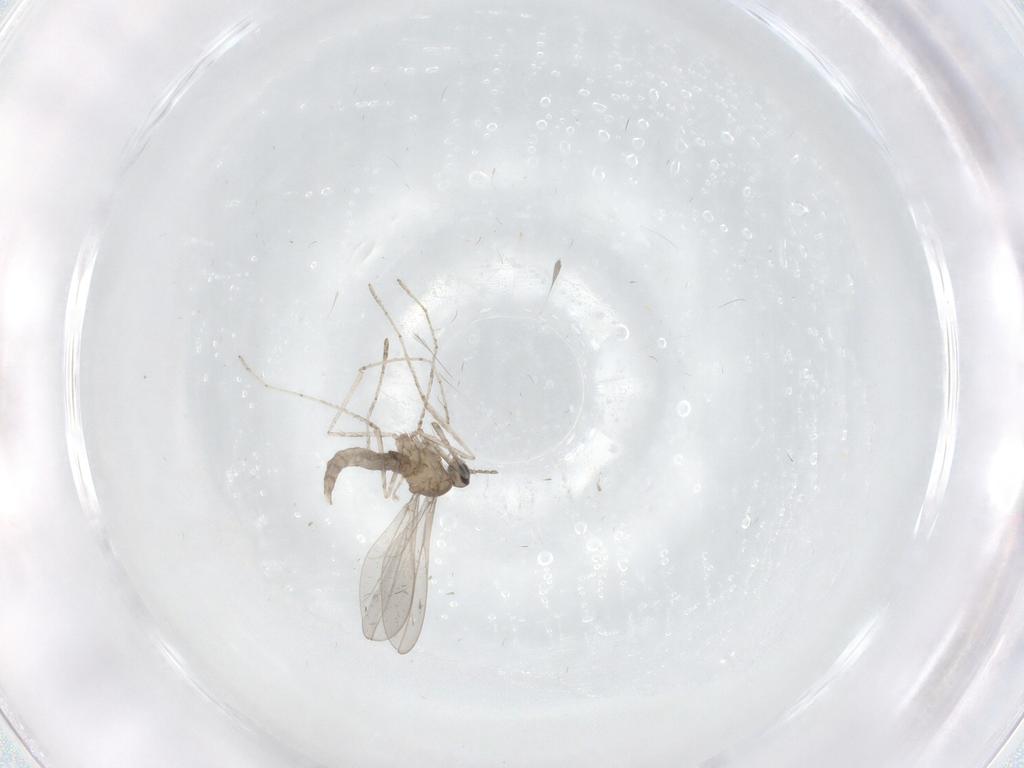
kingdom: Animalia
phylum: Arthropoda
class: Insecta
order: Diptera
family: Cecidomyiidae
